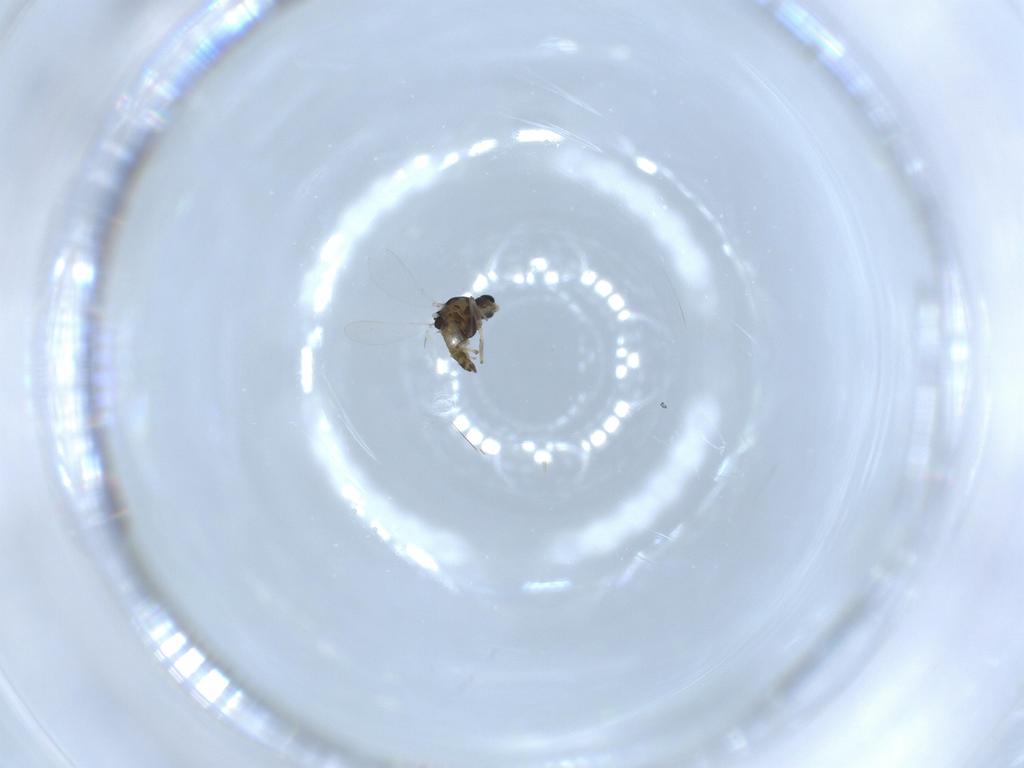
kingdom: Animalia
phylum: Arthropoda
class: Insecta
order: Diptera
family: Chironomidae
